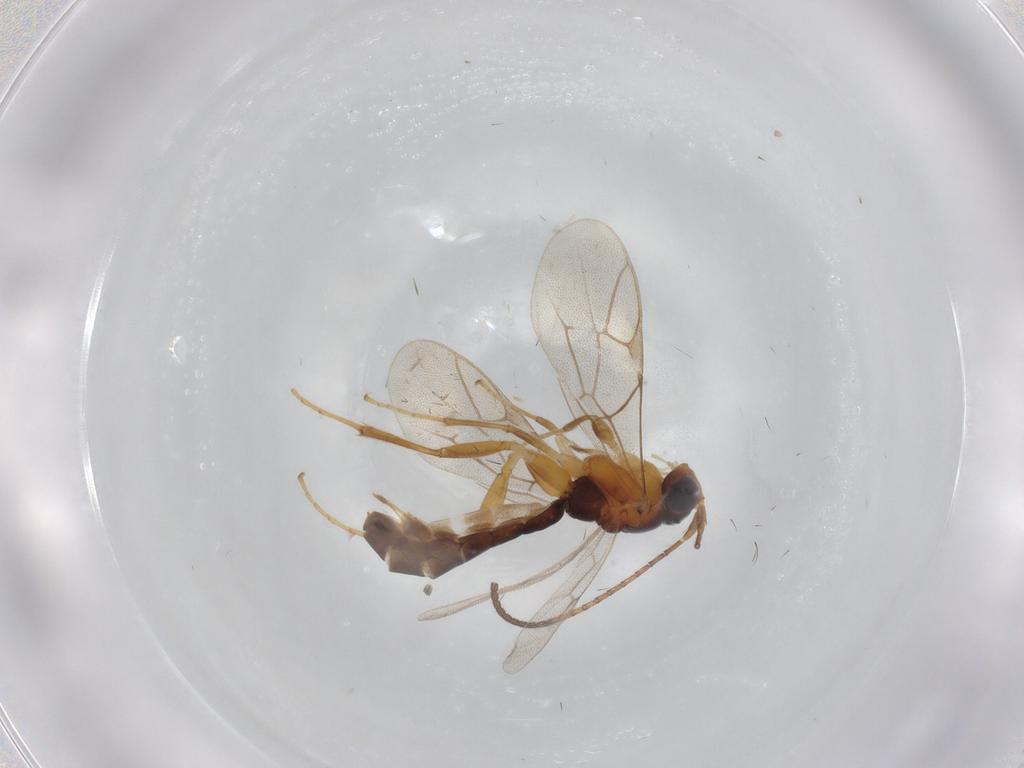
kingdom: Animalia
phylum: Arthropoda
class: Insecta
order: Hymenoptera
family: Ichneumonidae
